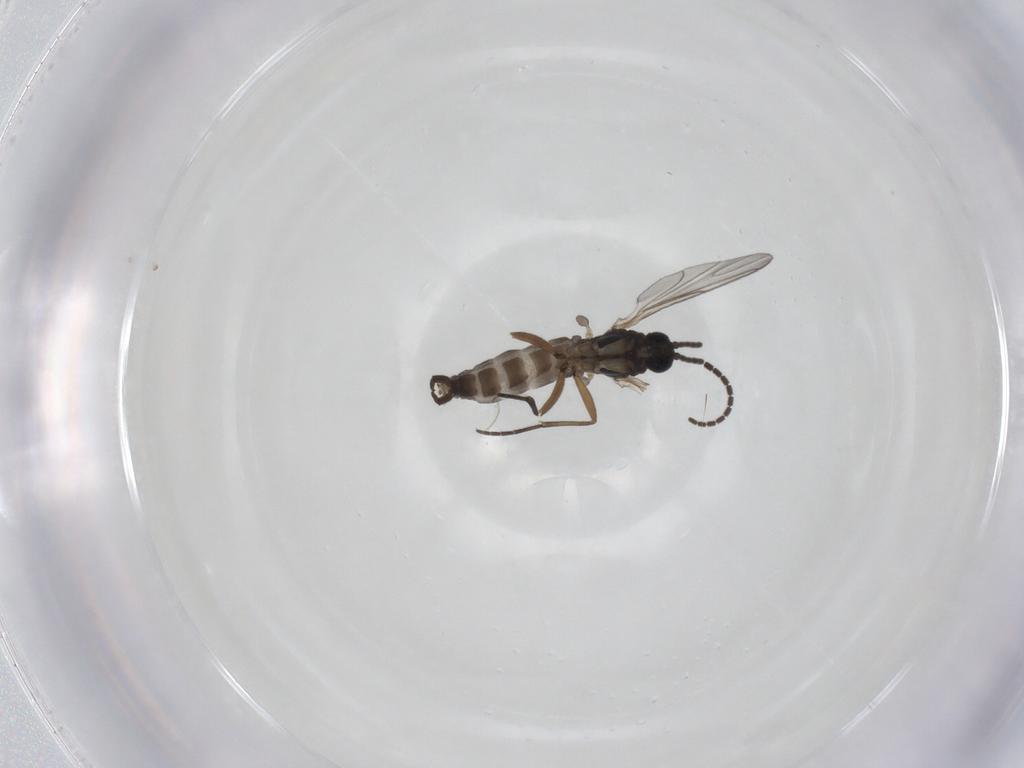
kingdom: Animalia
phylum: Arthropoda
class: Insecta
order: Diptera
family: Sciaridae
